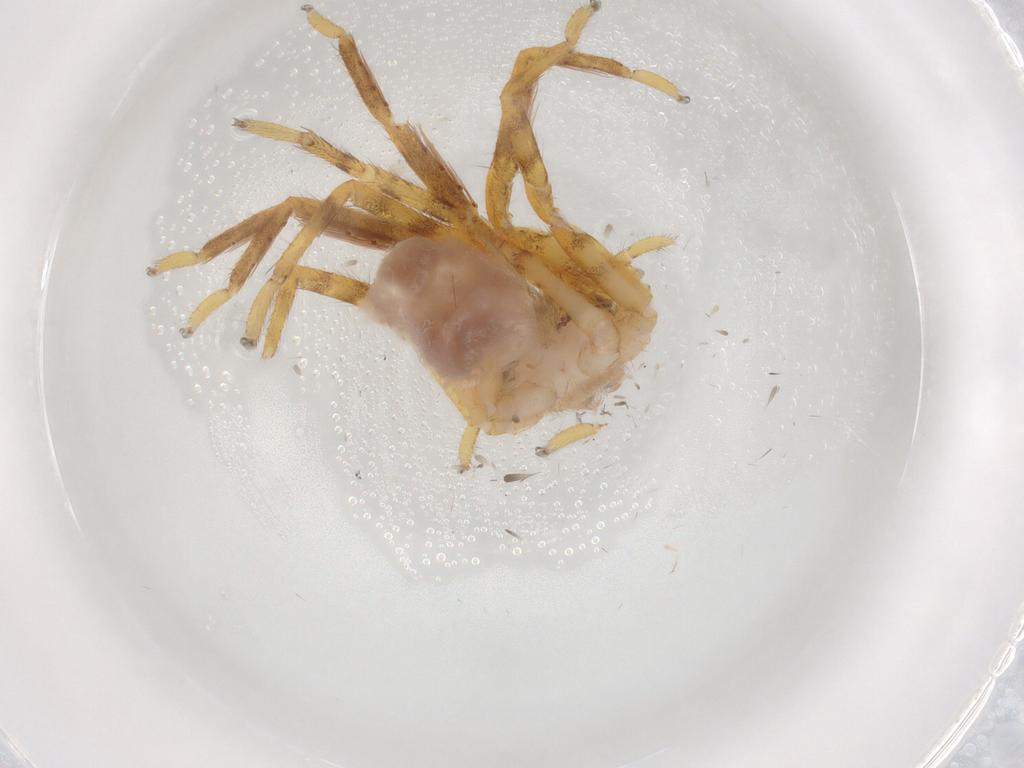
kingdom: Animalia
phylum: Arthropoda
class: Arachnida
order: Araneae
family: Sparassidae
